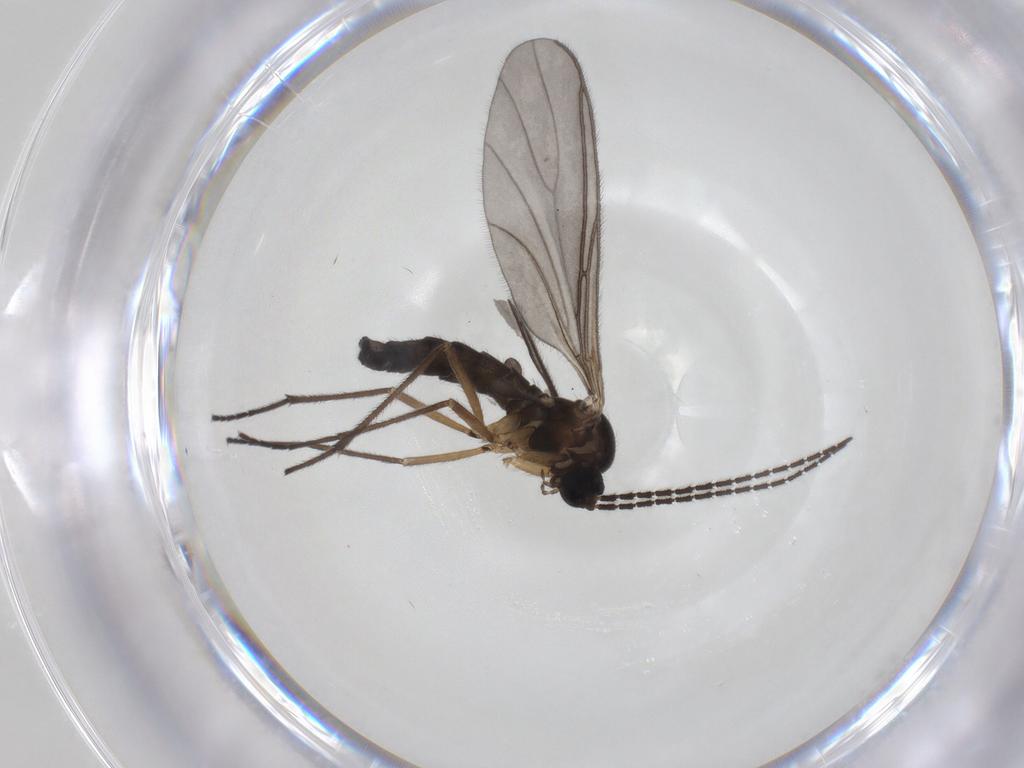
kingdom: Animalia
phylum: Arthropoda
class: Insecta
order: Diptera
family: Sciaridae
